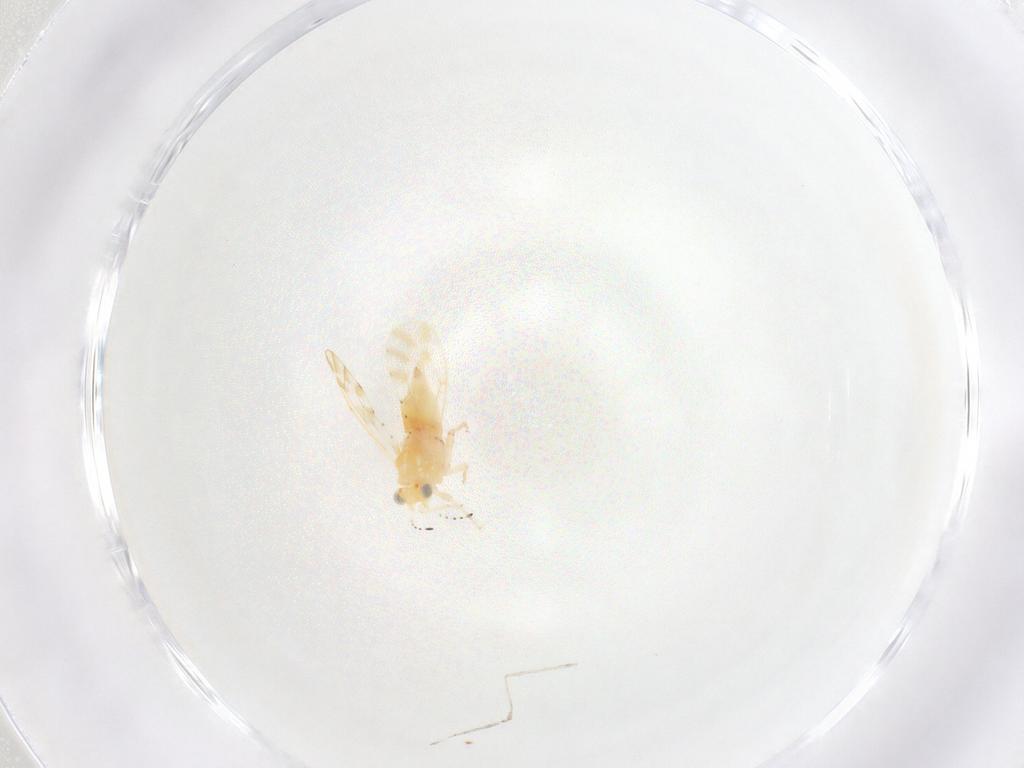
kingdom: Animalia
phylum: Arthropoda
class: Insecta
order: Diptera
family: Cecidomyiidae
